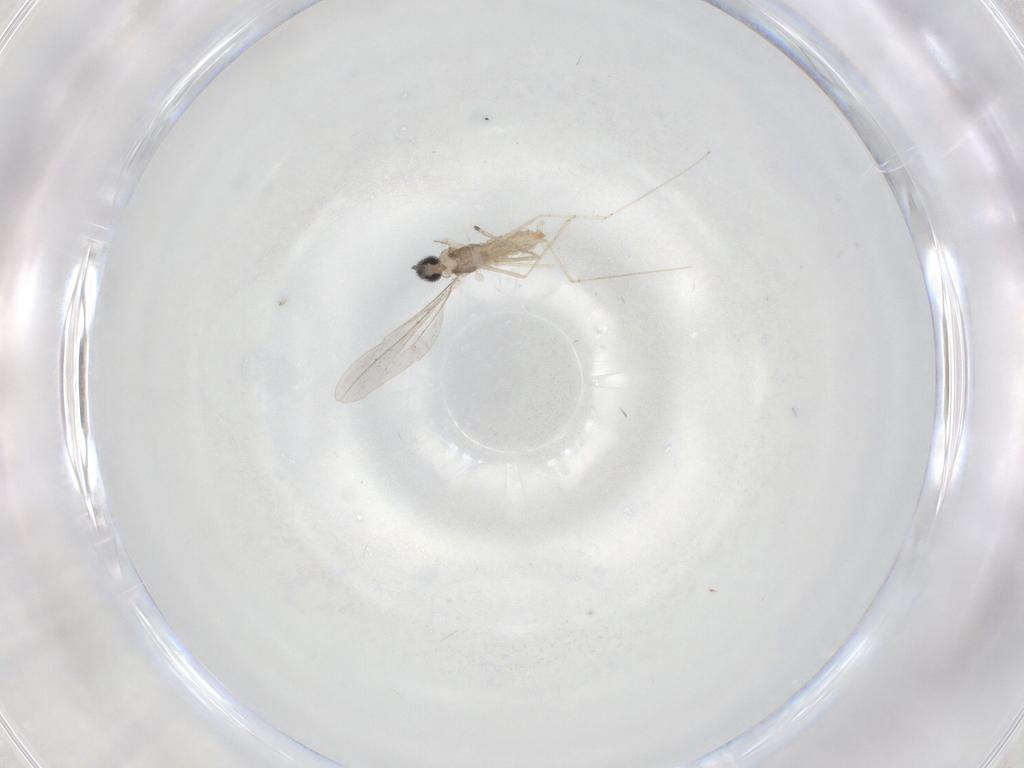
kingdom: Animalia
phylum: Arthropoda
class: Insecta
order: Diptera
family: Cecidomyiidae
